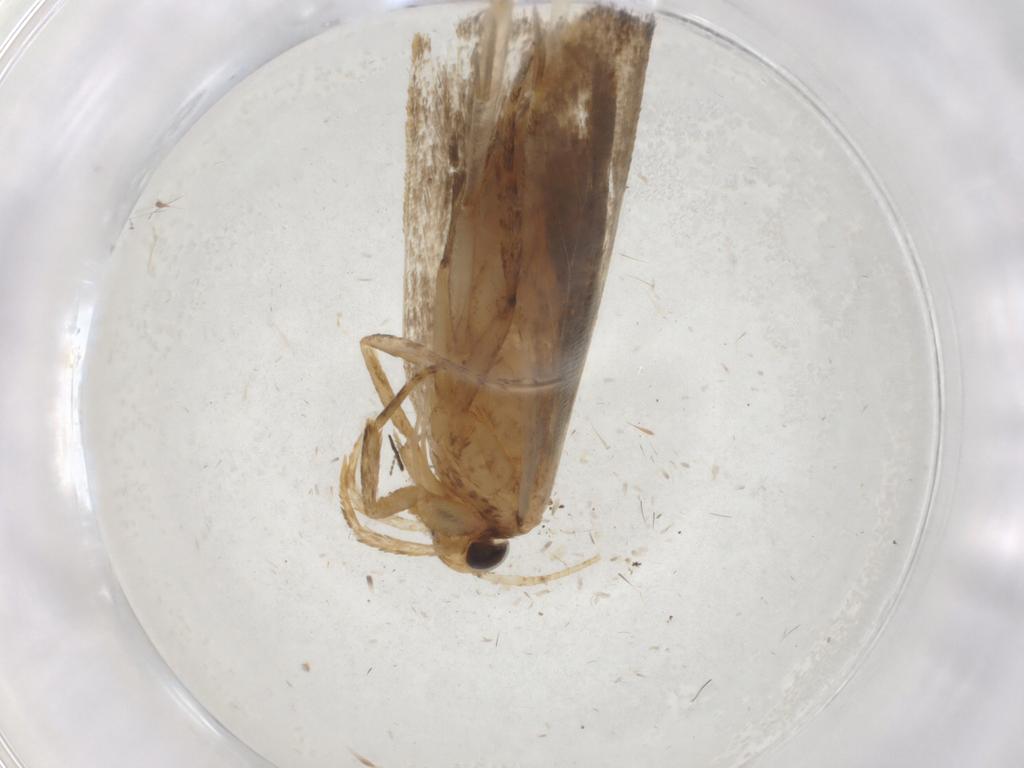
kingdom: Animalia
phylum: Arthropoda
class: Insecta
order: Lepidoptera
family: Autostichidae
